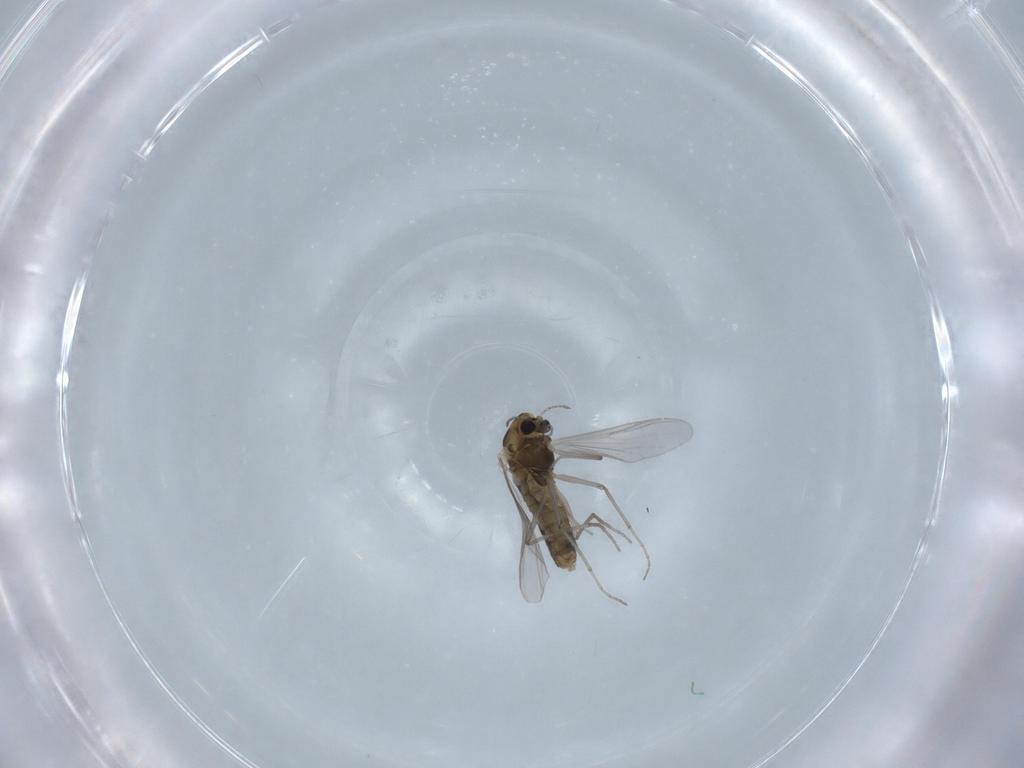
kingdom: Animalia
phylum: Arthropoda
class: Insecta
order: Diptera
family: Chironomidae
